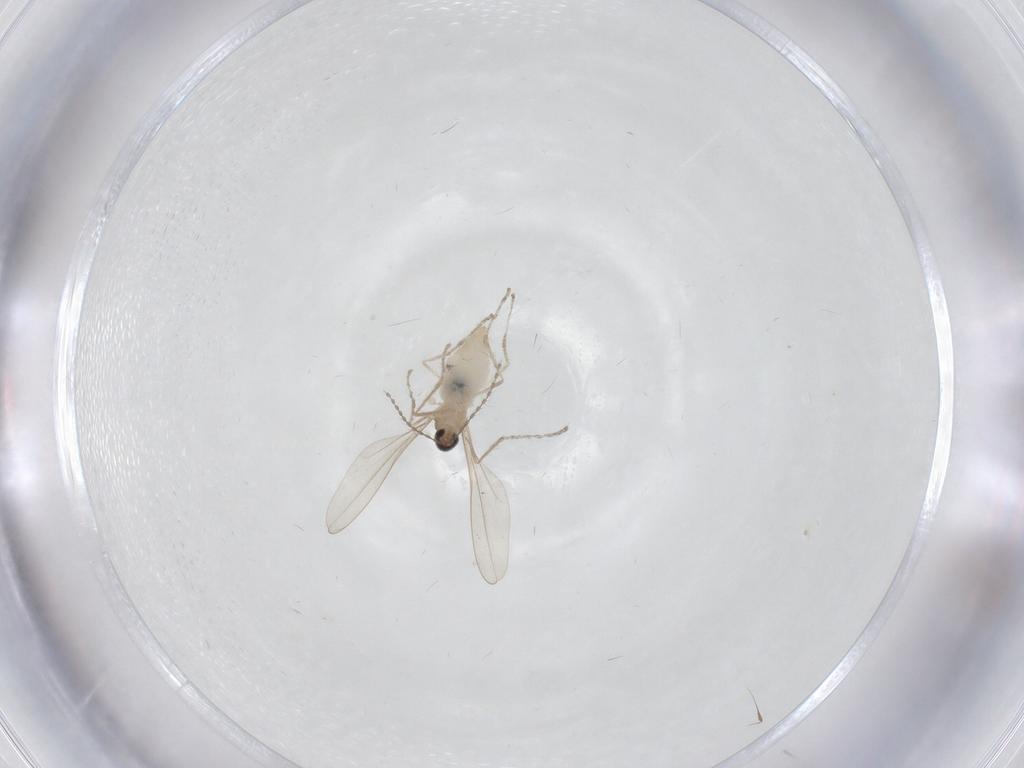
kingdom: Animalia
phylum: Arthropoda
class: Insecta
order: Diptera
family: Cecidomyiidae
